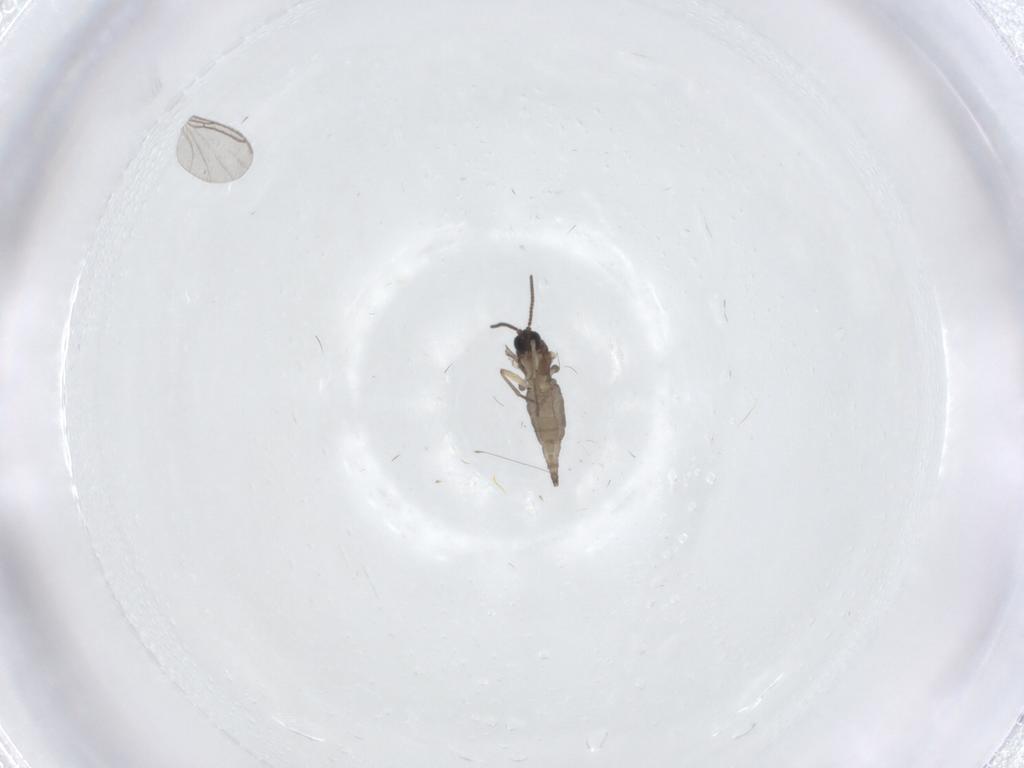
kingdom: Animalia
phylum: Arthropoda
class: Insecta
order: Diptera
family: Sciaridae
